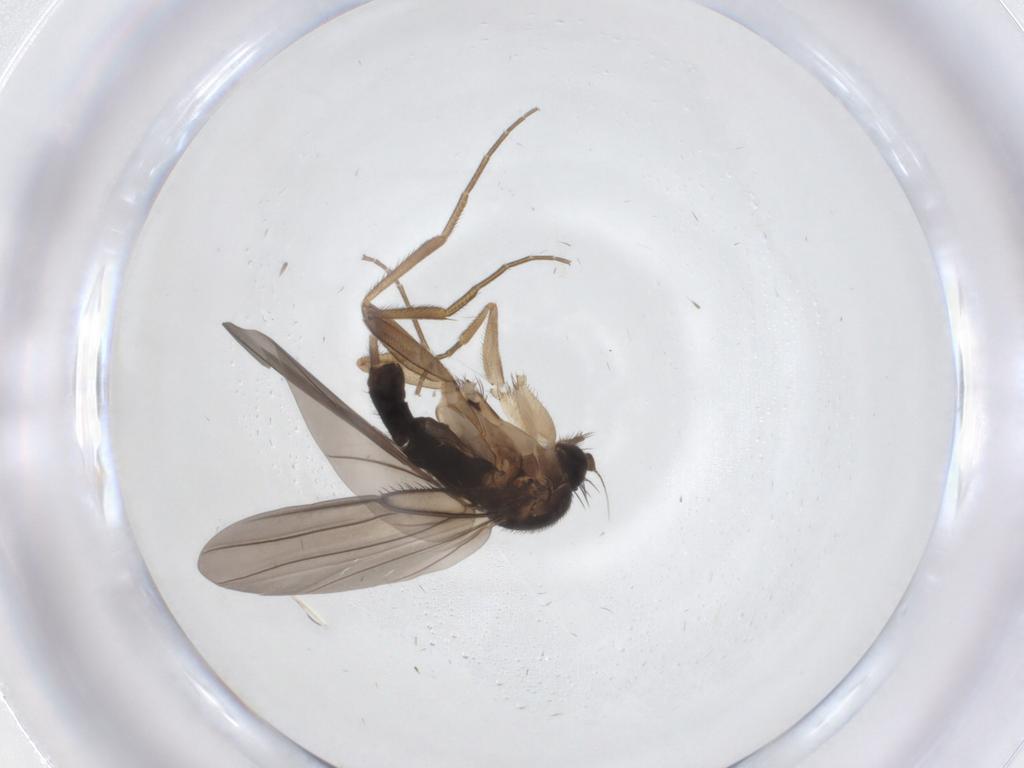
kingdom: Animalia
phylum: Arthropoda
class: Insecta
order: Diptera
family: Phoridae
